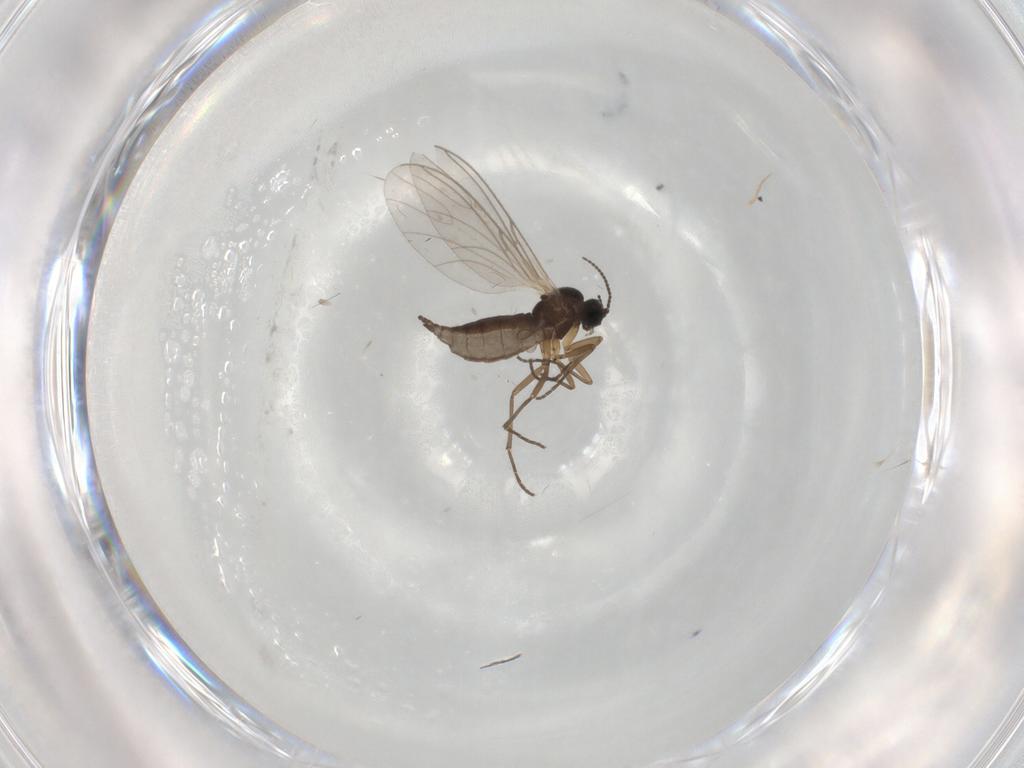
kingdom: Animalia
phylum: Arthropoda
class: Insecta
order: Diptera
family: Sciaridae
